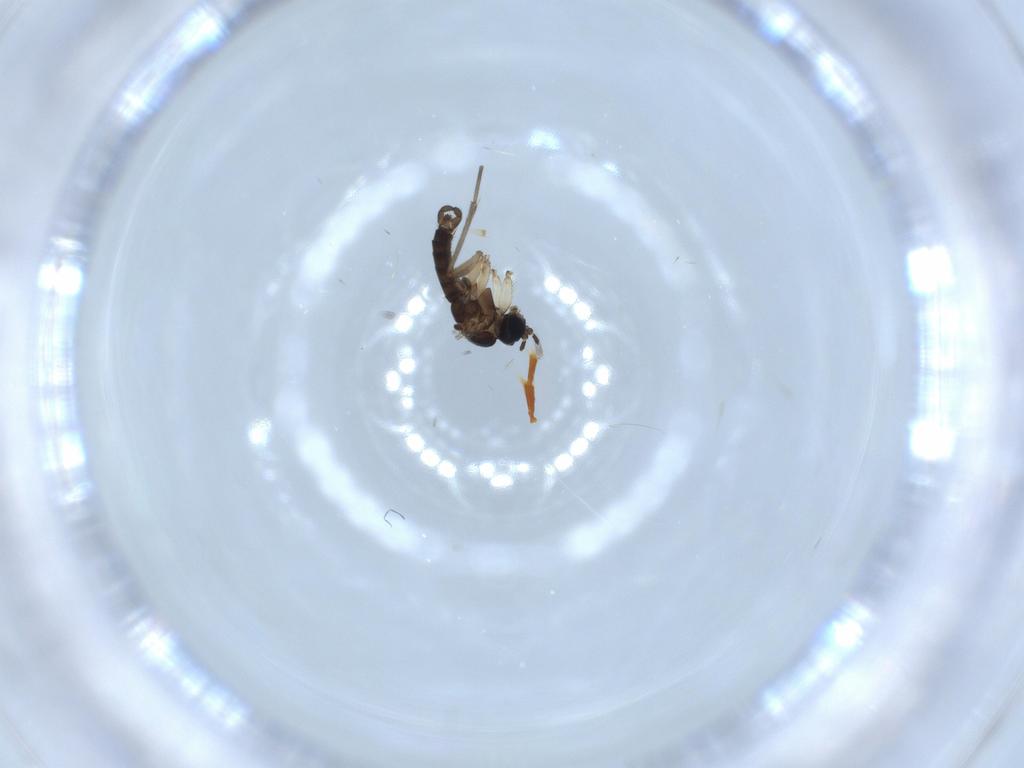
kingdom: Animalia
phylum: Arthropoda
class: Insecta
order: Diptera
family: Sciaridae
